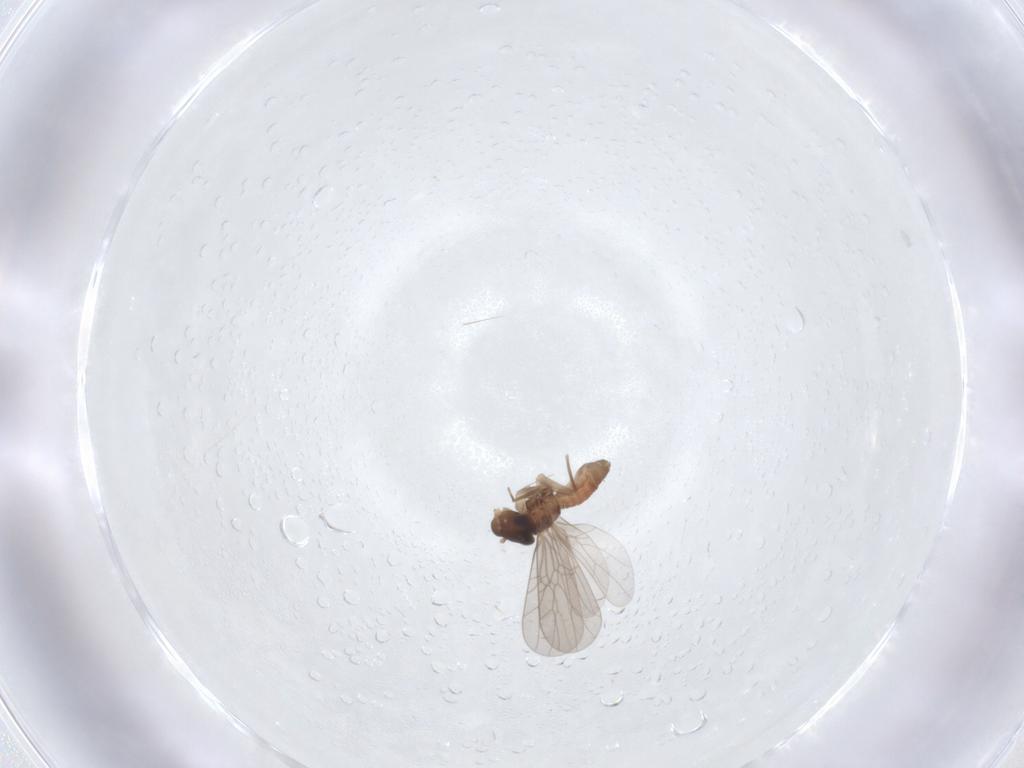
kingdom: Animalia
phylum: Arthropoda
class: Insecta
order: Psocodea
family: Lepidopsocidae
